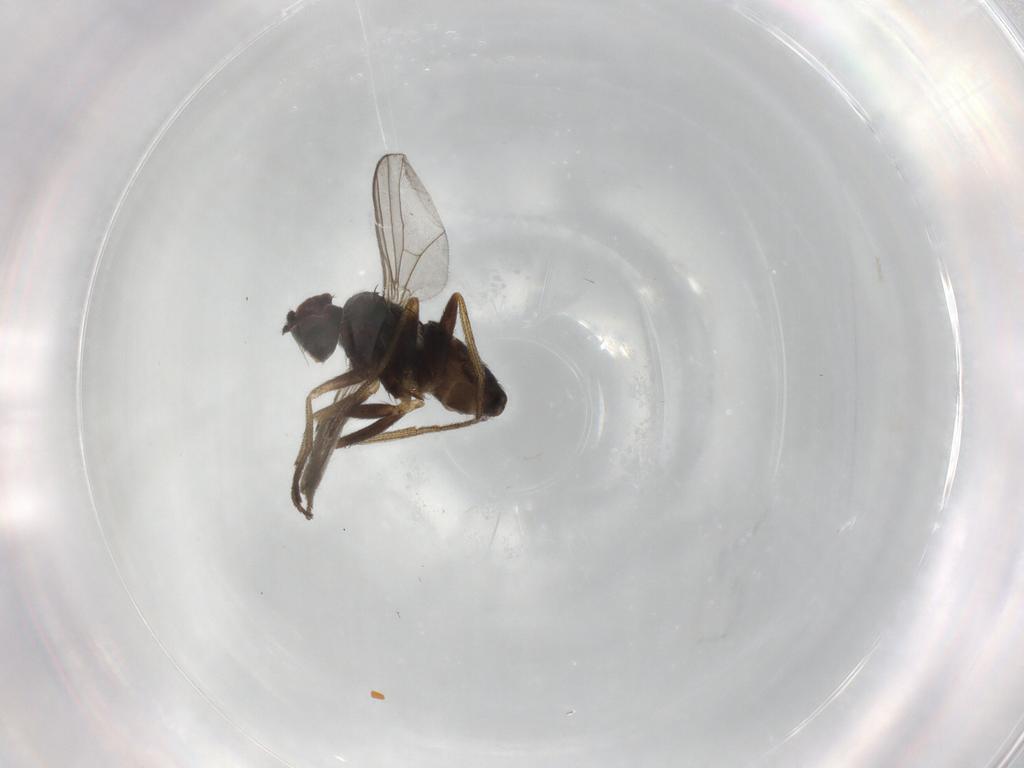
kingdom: Animalia
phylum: Arthropoda
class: Insecta
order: Diptera
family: Chironomidae
